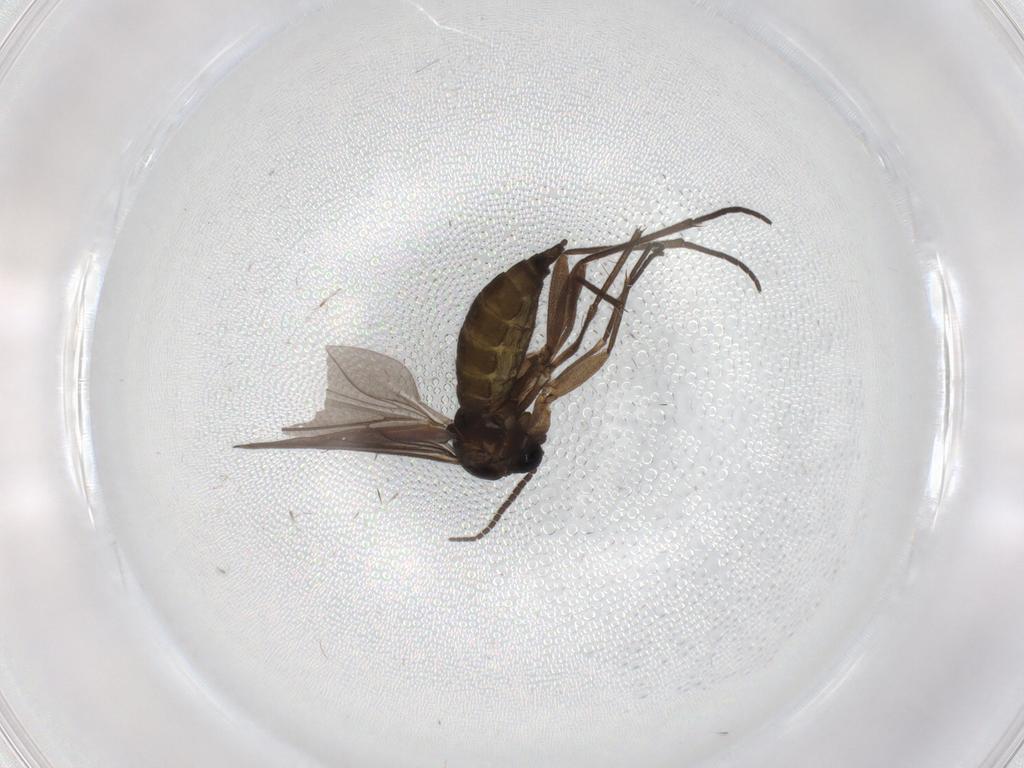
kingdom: Animalia
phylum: Arthropoda
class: Insecta
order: Diptera
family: Sciaridae
